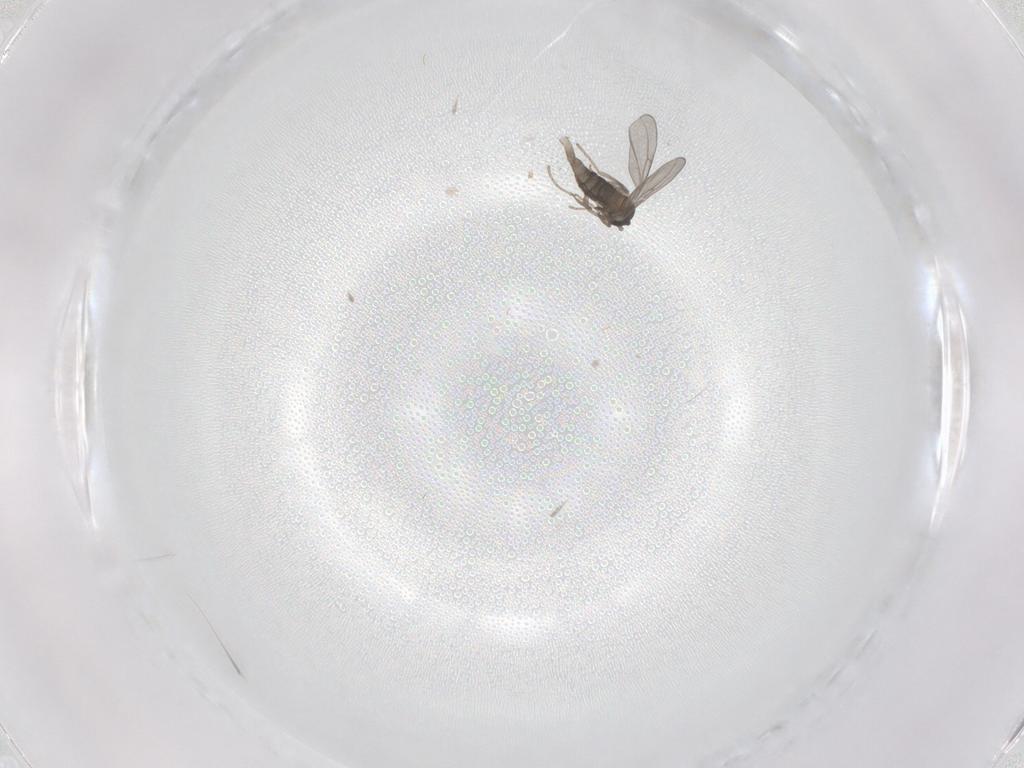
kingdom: Animalia
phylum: Arthropoda
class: Insecta
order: Diptera
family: Cecidomyiidae
